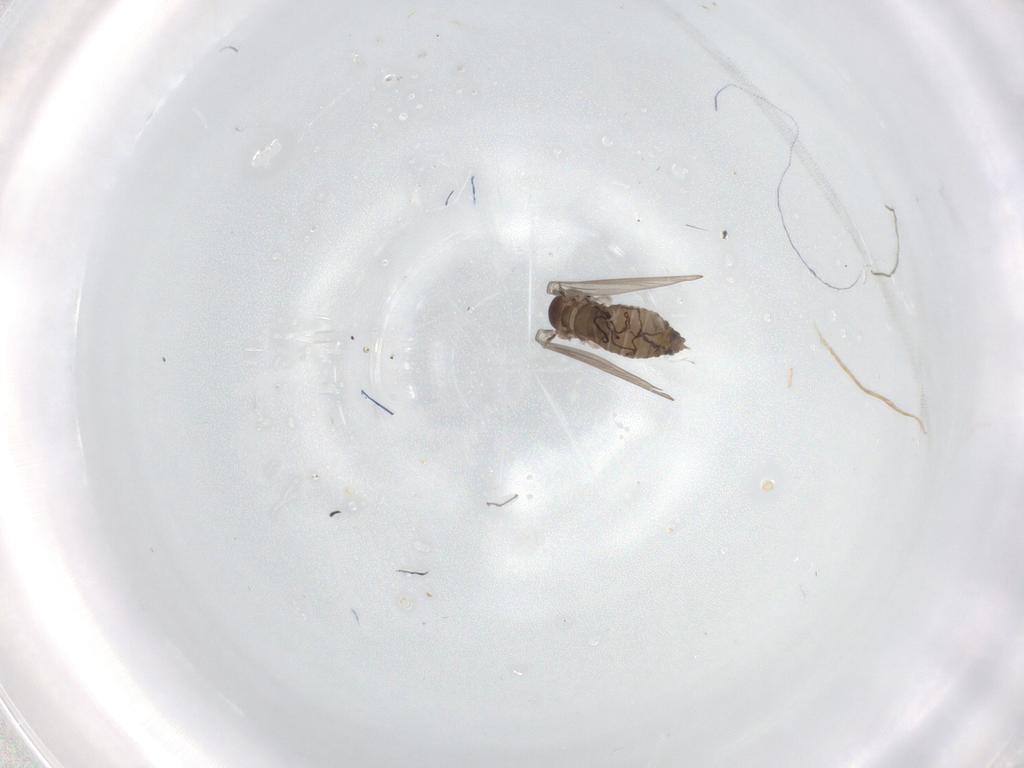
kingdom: Animalia
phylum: Arthropoda
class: Insecta
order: Diptera
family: Psychodidae
